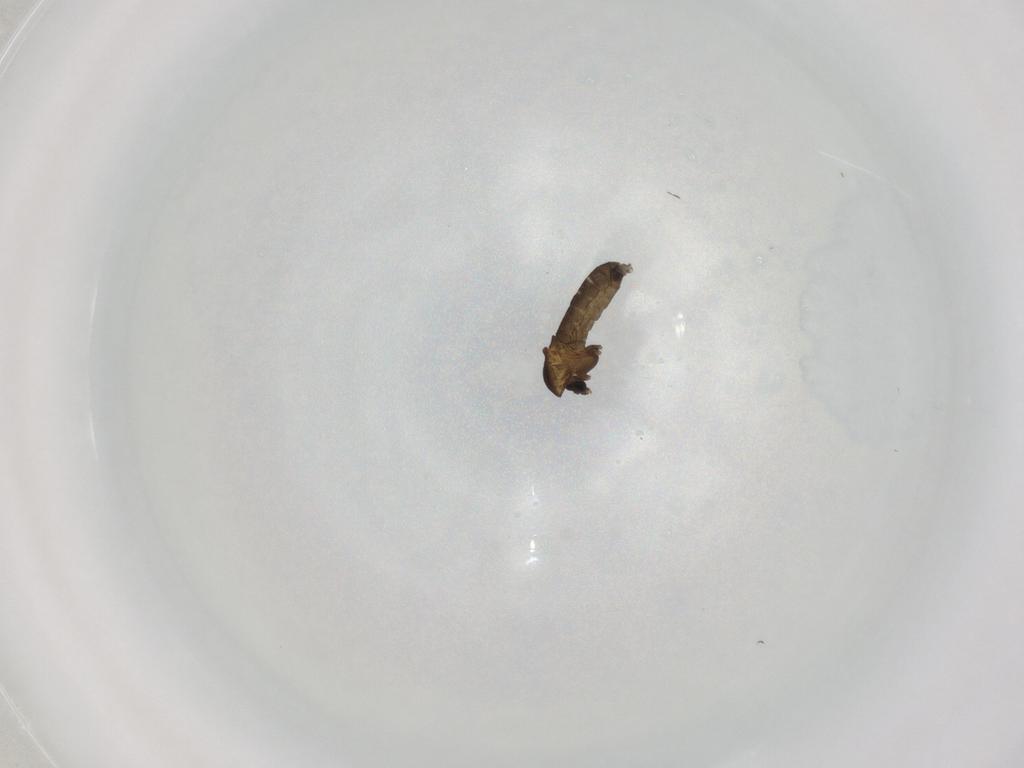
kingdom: Animalia
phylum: Arthropoda
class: Insecta
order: Diptera
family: Chironomidae
